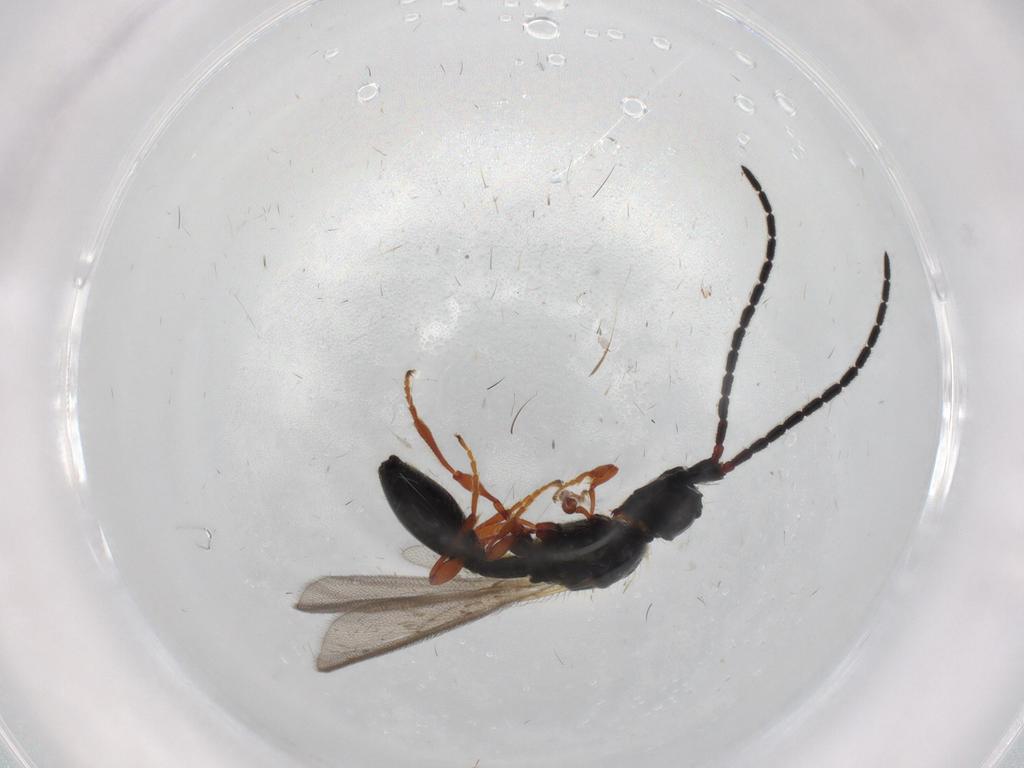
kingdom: Animalia
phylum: Arthropoda
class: Insecta
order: Hymenoptera
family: Diapriidae
